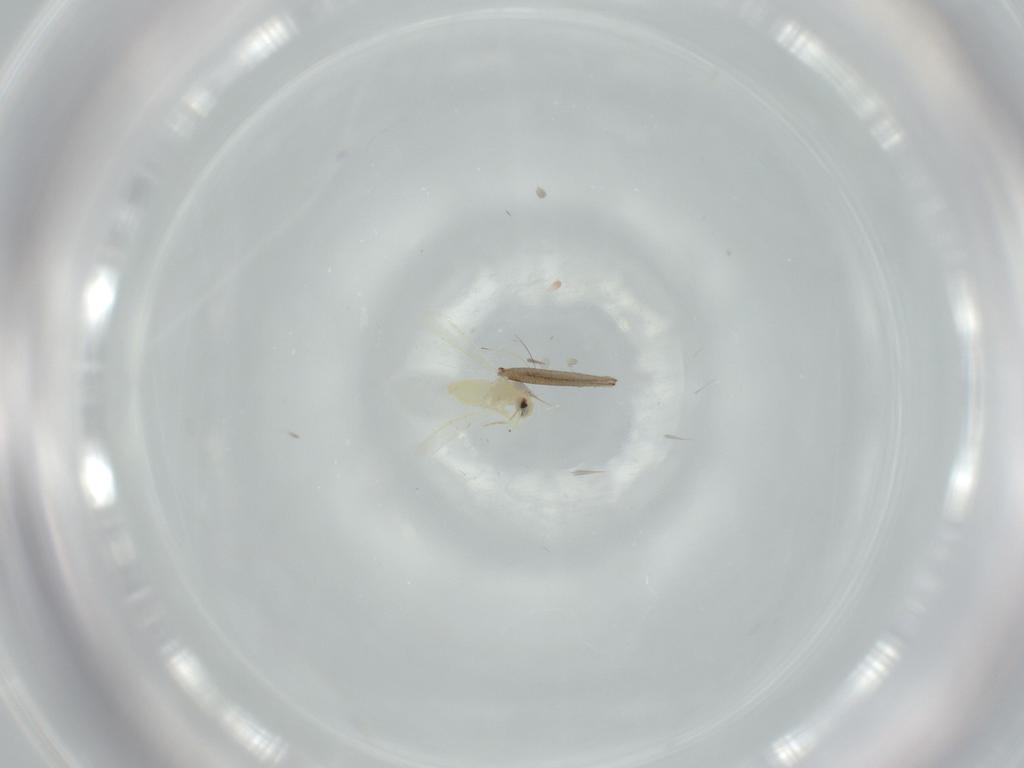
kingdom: Animalia
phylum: Arthropoda
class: Insecta
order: Diptera
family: Sciaridae
